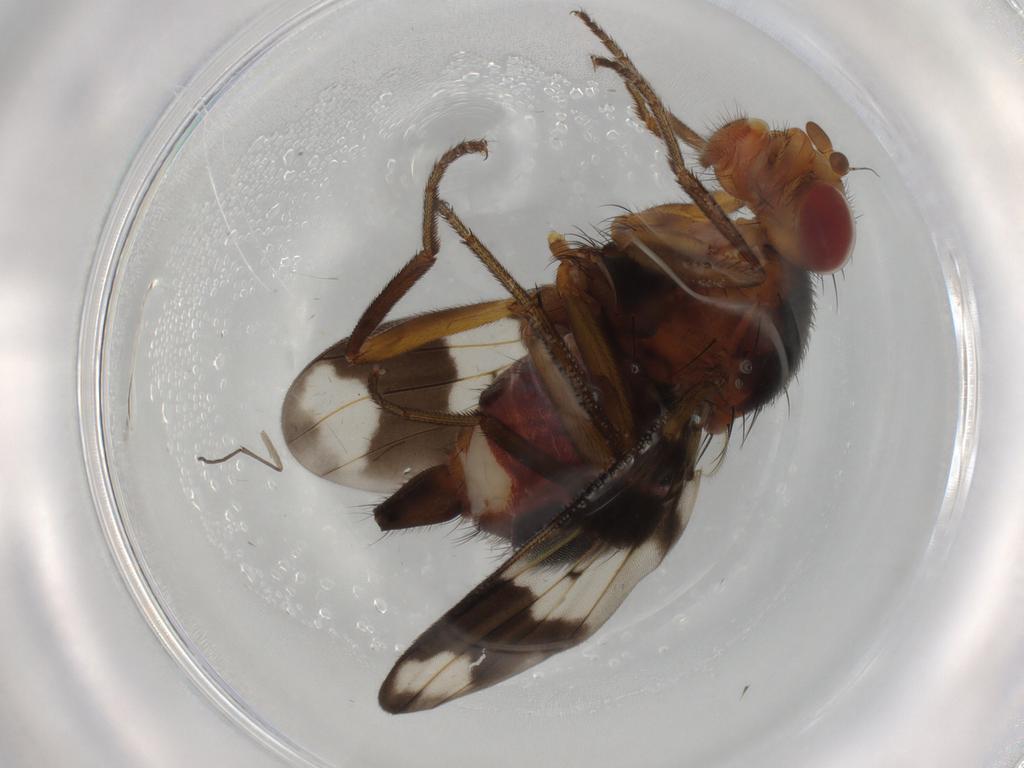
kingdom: Animalia
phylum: Arthropoda
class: Insecta
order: Diptera
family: Richardiidae
